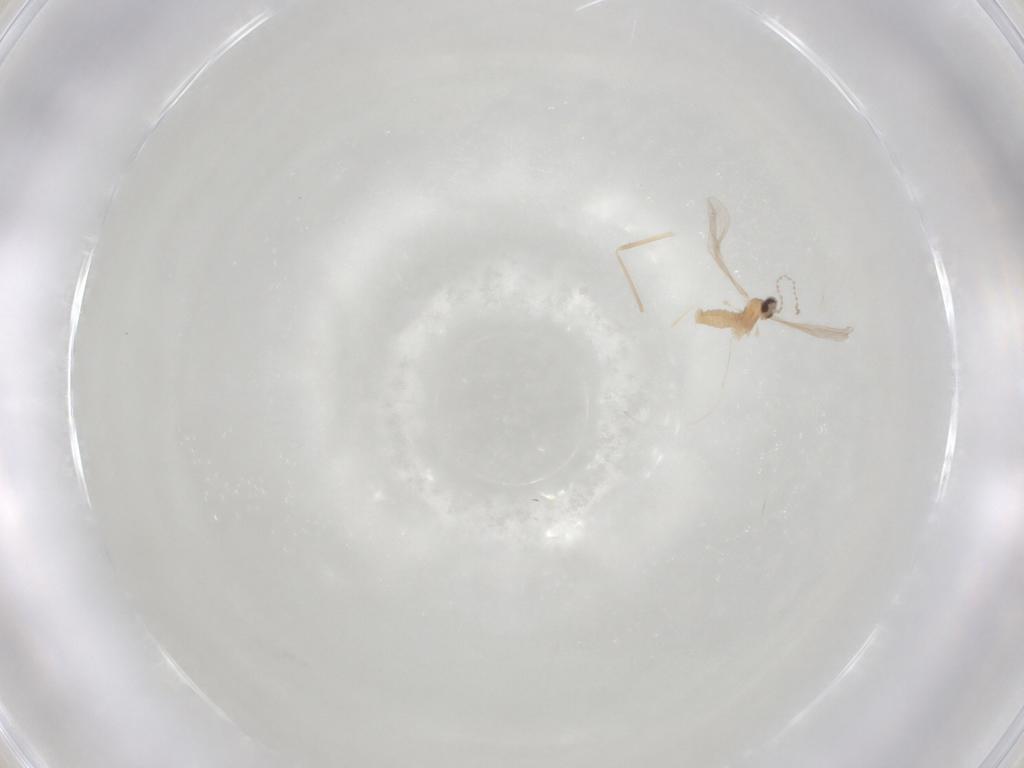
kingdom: Animalia
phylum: Arthropoda
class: Insecta
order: Diptera
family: Cecidomyiidae
